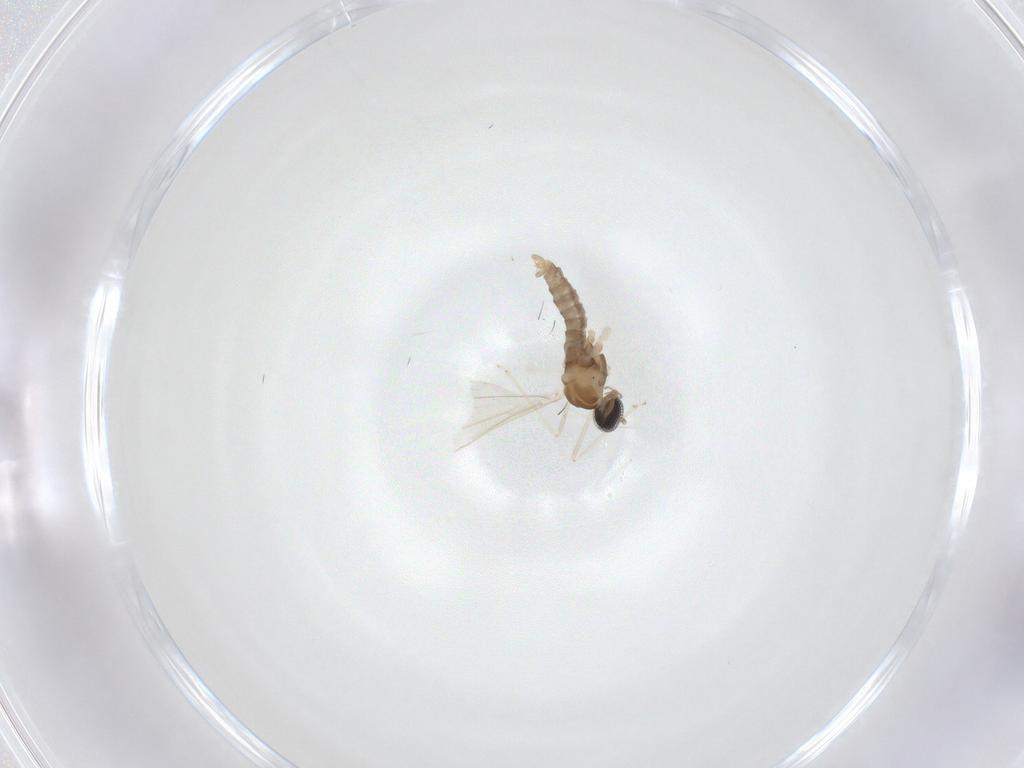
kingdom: Animalia
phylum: Arthropoda
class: Insecta
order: Diptera
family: Cecidomyiidae
